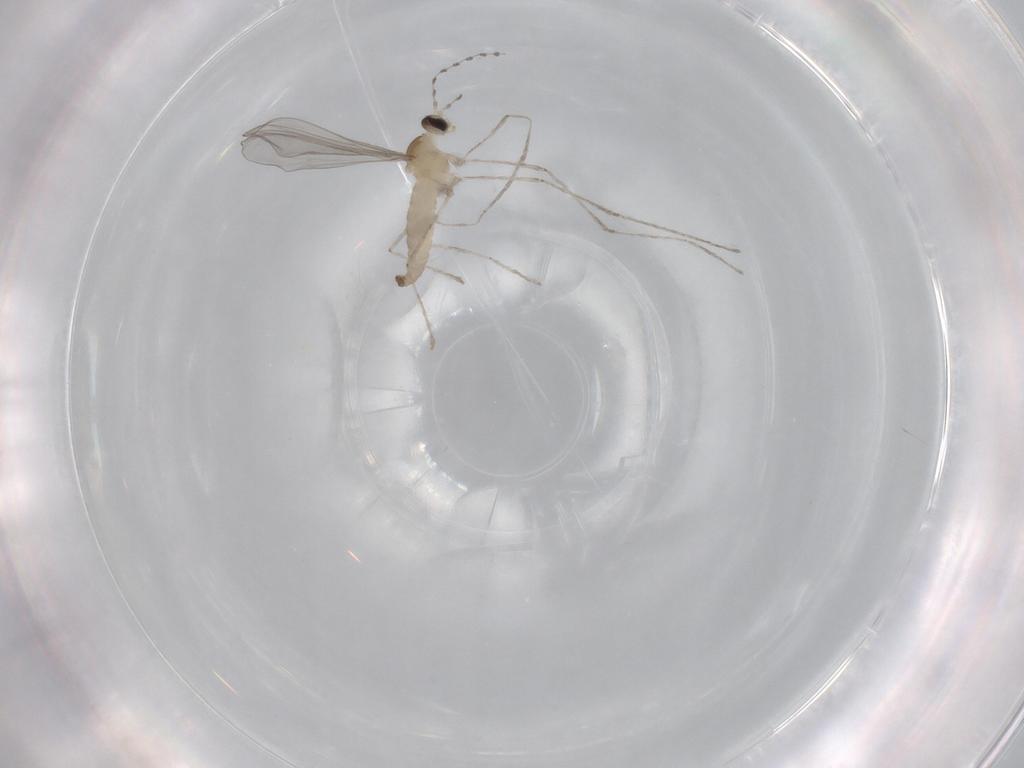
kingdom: Animalia
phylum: Arthropoda
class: Insecta
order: Diptera
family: Cecidomyiidae
